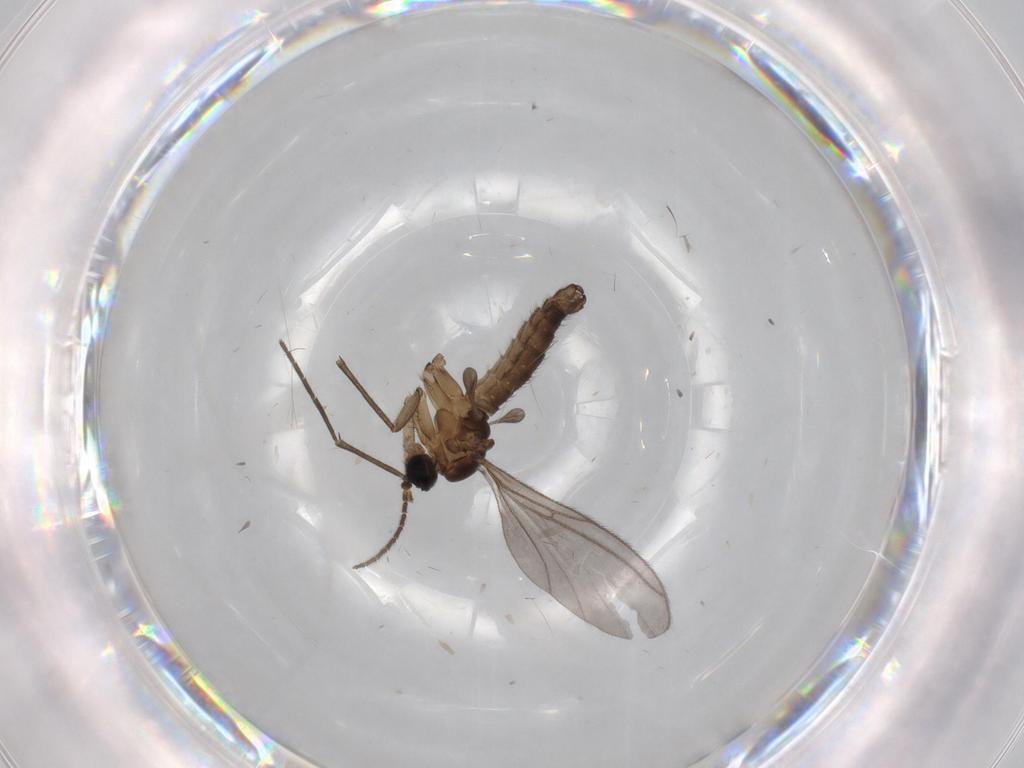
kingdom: Animalia
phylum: Arthropoda
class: Insecta
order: Diptera
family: Sciaridae
